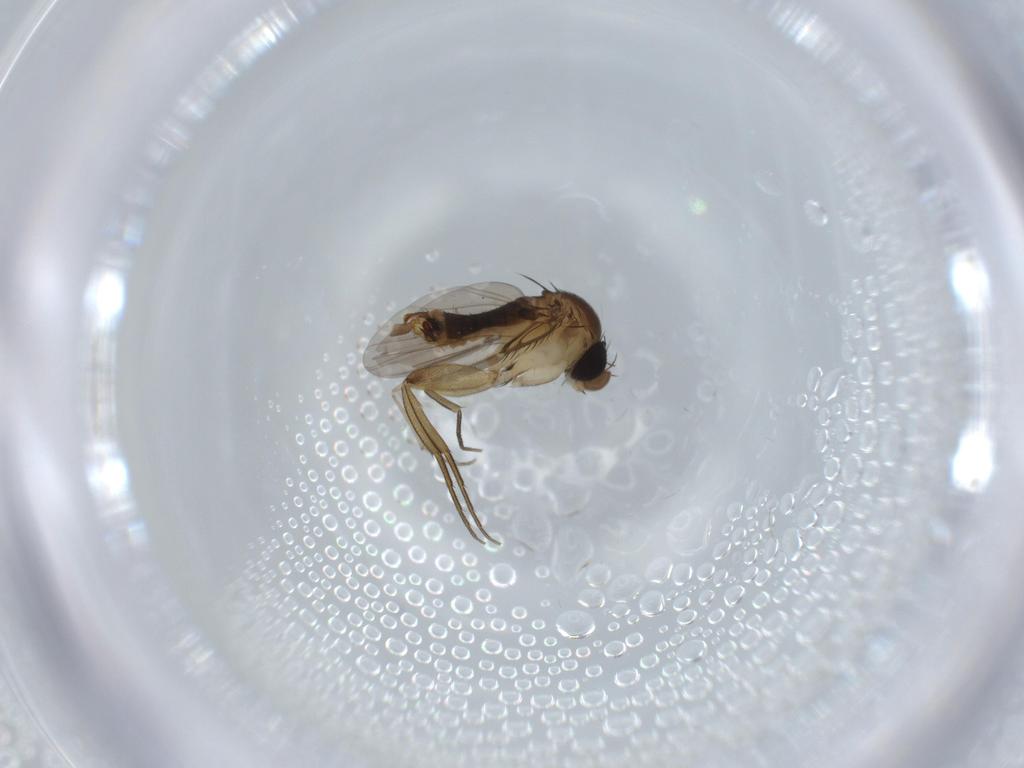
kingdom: Animalia
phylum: Arthropoda
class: Insecta
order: Diptera
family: Phoridae
